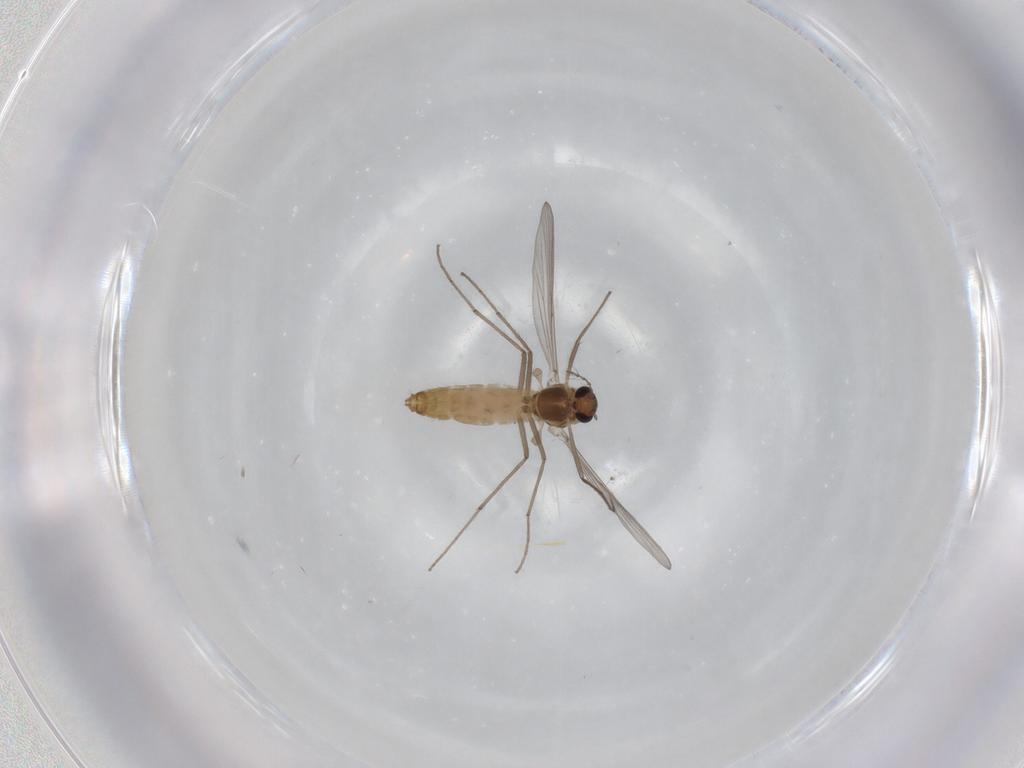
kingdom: Animalia
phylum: Arthropoda
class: Insecta
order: Diptera
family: Chironomidae
